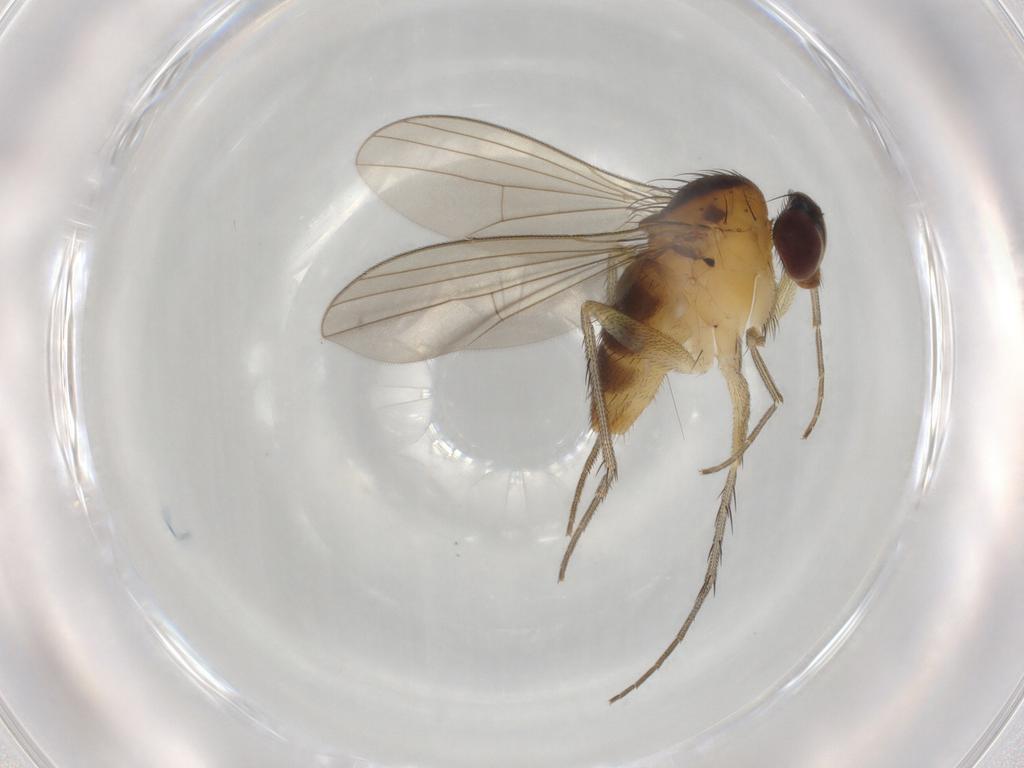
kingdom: Animalia
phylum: Arthropoda
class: Insecta
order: Diptera
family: Dolichopodidae
